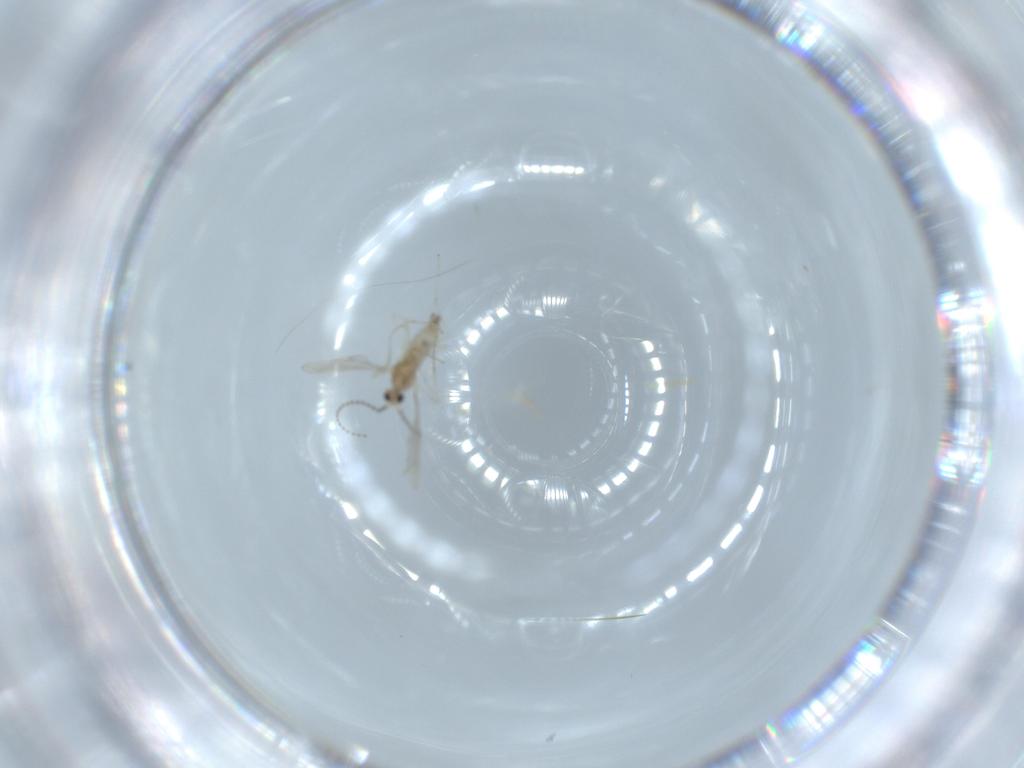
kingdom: Animalia
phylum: Arthropoda
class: Insecta
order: Diptera
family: Cecidomyiidae
